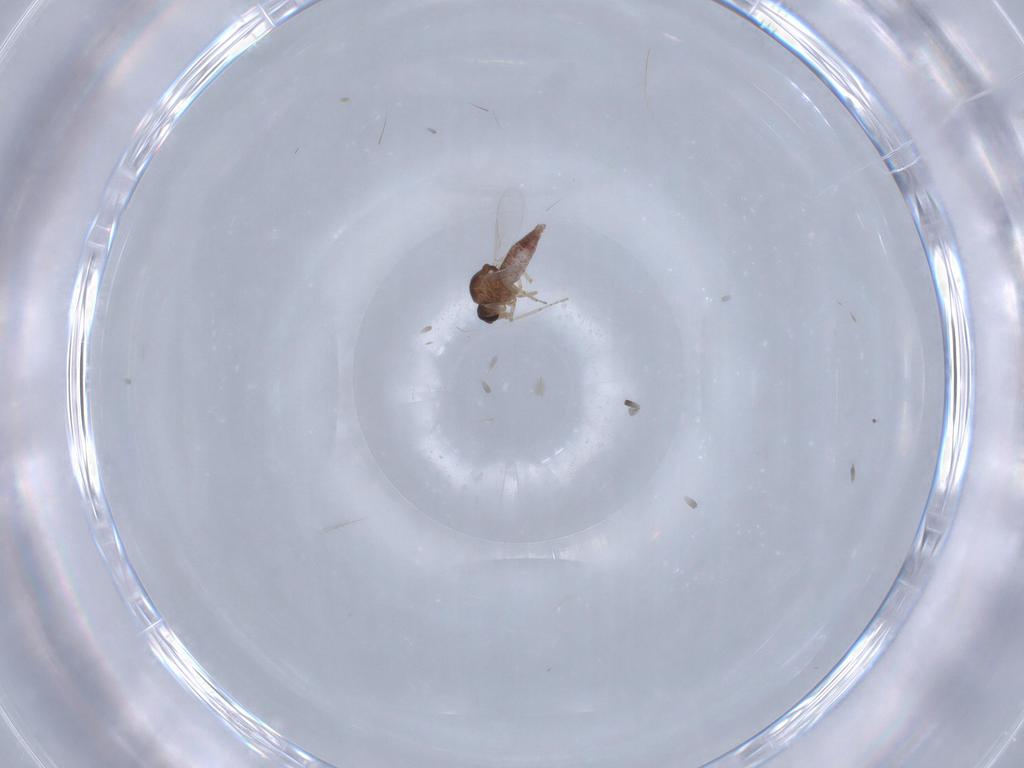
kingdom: Animalia
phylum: Arthropoda
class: Insecta
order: Diptera
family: Ceratopogonidae
